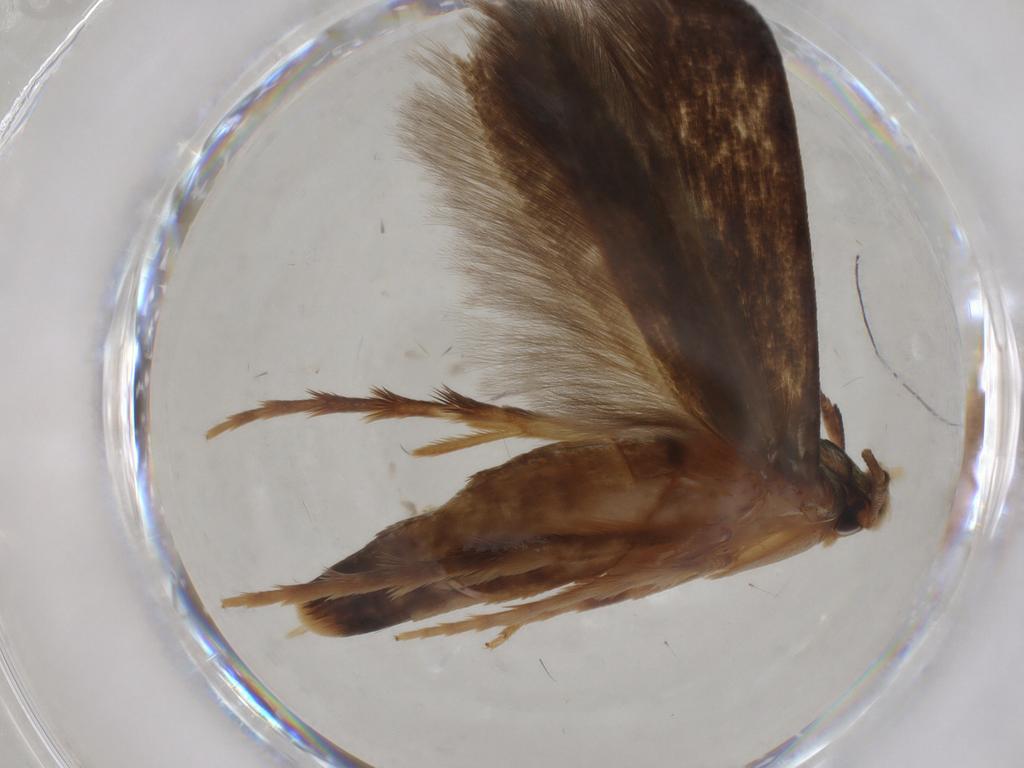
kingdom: Animalia
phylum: Arthropoda
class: Insecta
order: Lepidoptera
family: Tineidae
